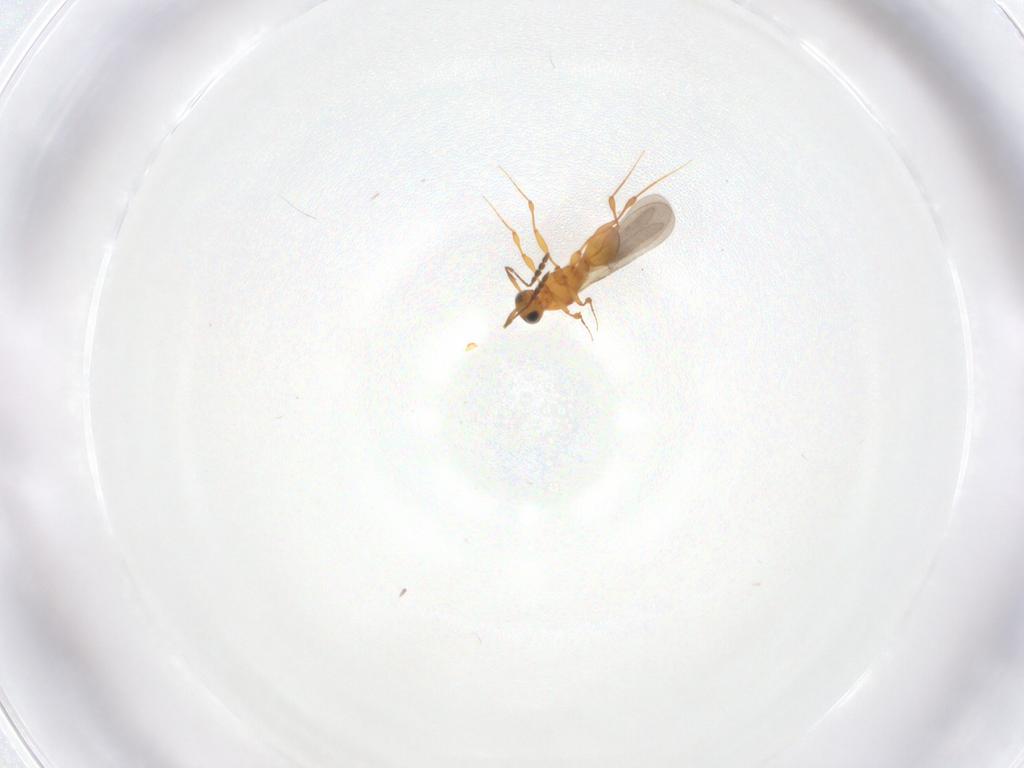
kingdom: Animalia
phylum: Arthropoda
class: Insecta
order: Hymenoptera
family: Platygastridae
